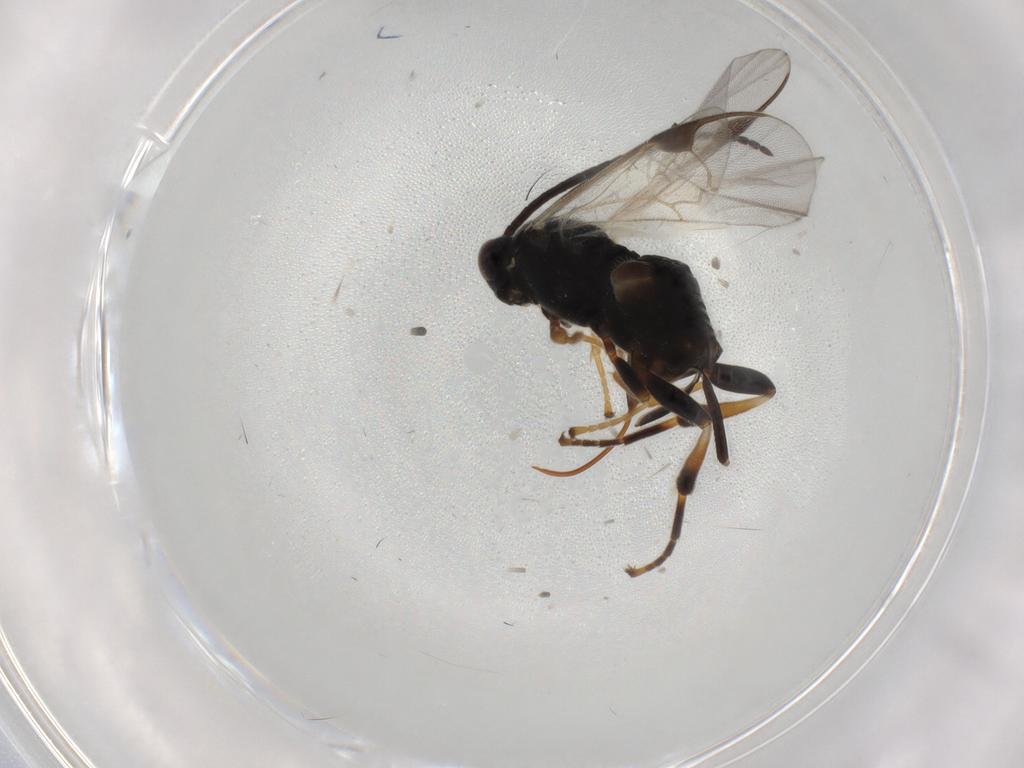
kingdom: Animalia
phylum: Arthropoda
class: Insecta
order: Hymenoptera
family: Braconidae
